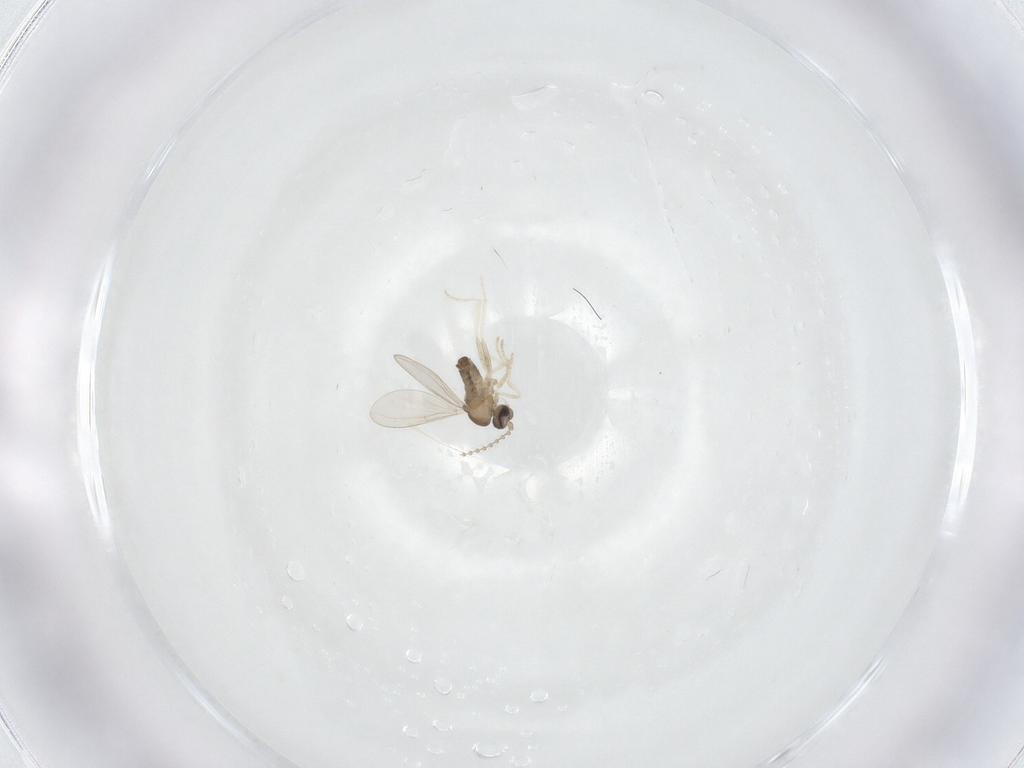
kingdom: Animalia
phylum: Arthropoda
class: Insecta
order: Diptera
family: Cecidomyiidae
